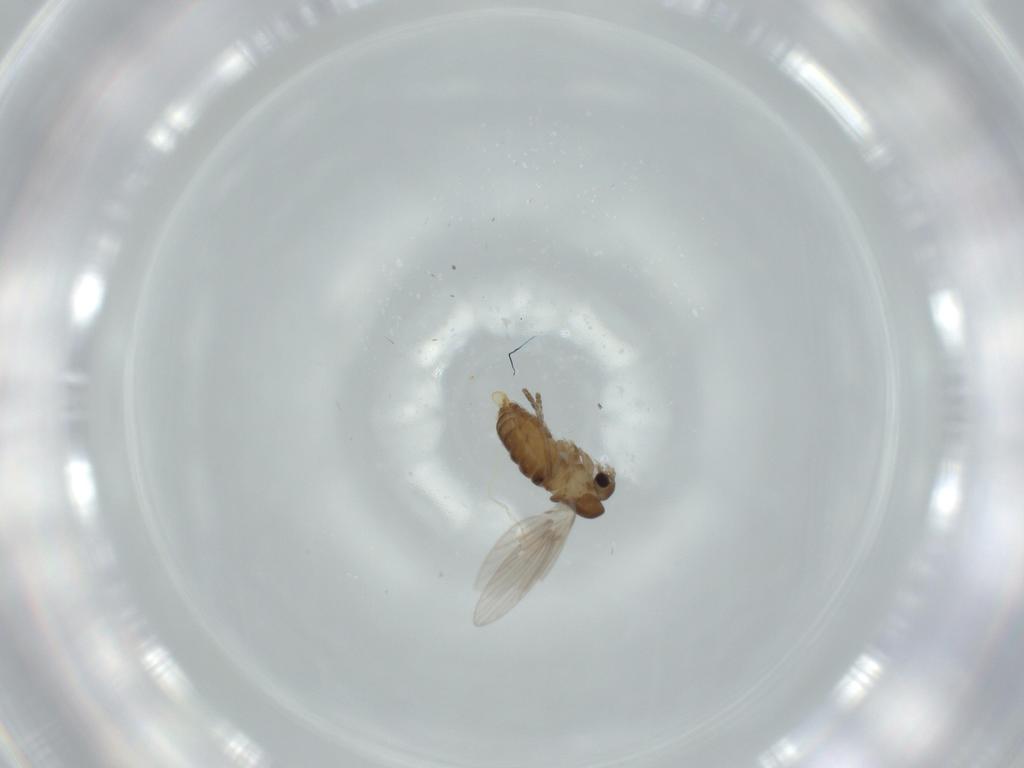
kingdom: Animalia
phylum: Arthropoda
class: Insecta
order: Diptera
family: Psychodidae
